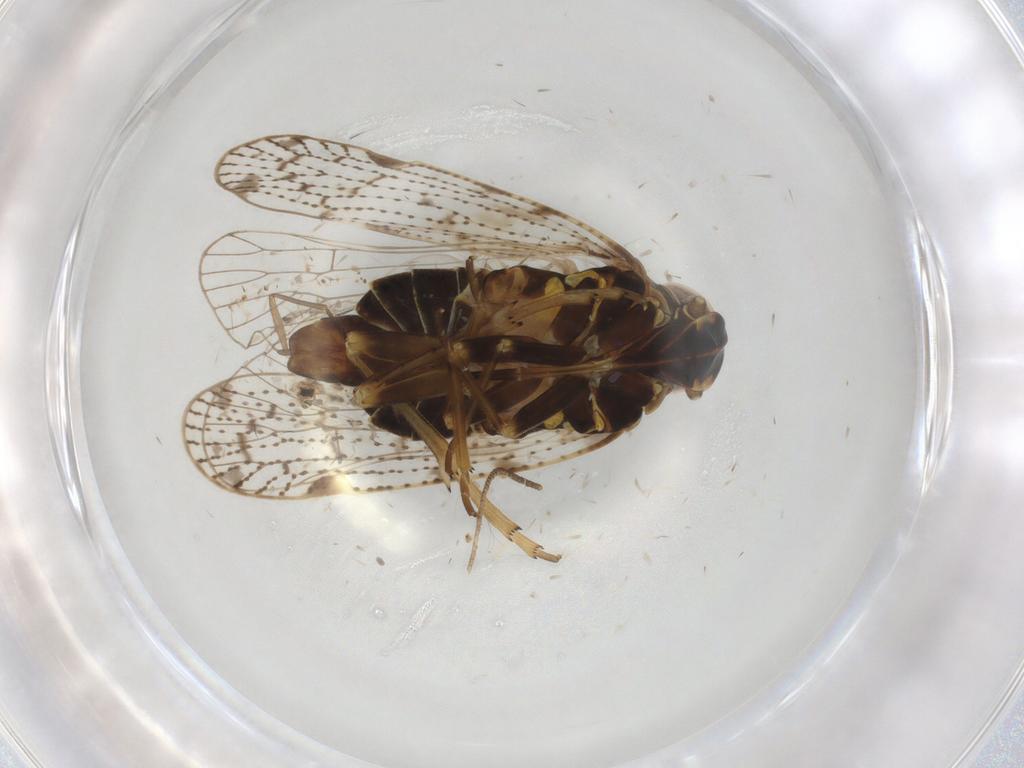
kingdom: Animalia
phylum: Arthropoda
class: Insecta
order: Hemiptera
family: Cixiidae
